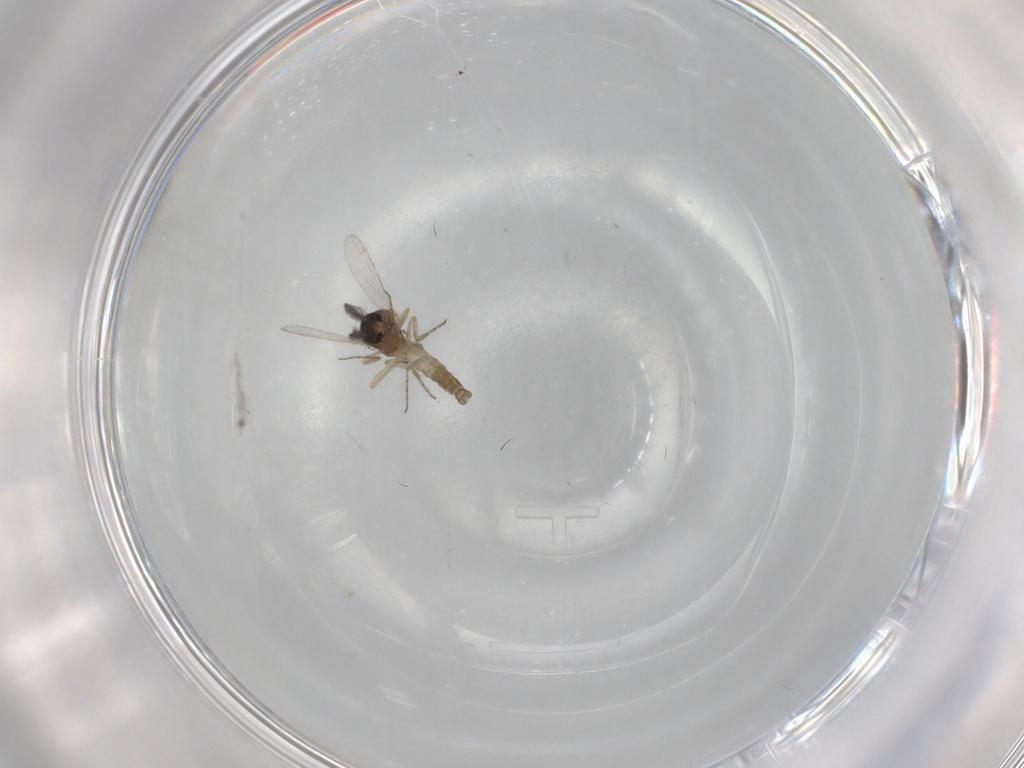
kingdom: Animalia
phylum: Arthropoda
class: Insecta
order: Diptera
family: Ceratopogonidae
